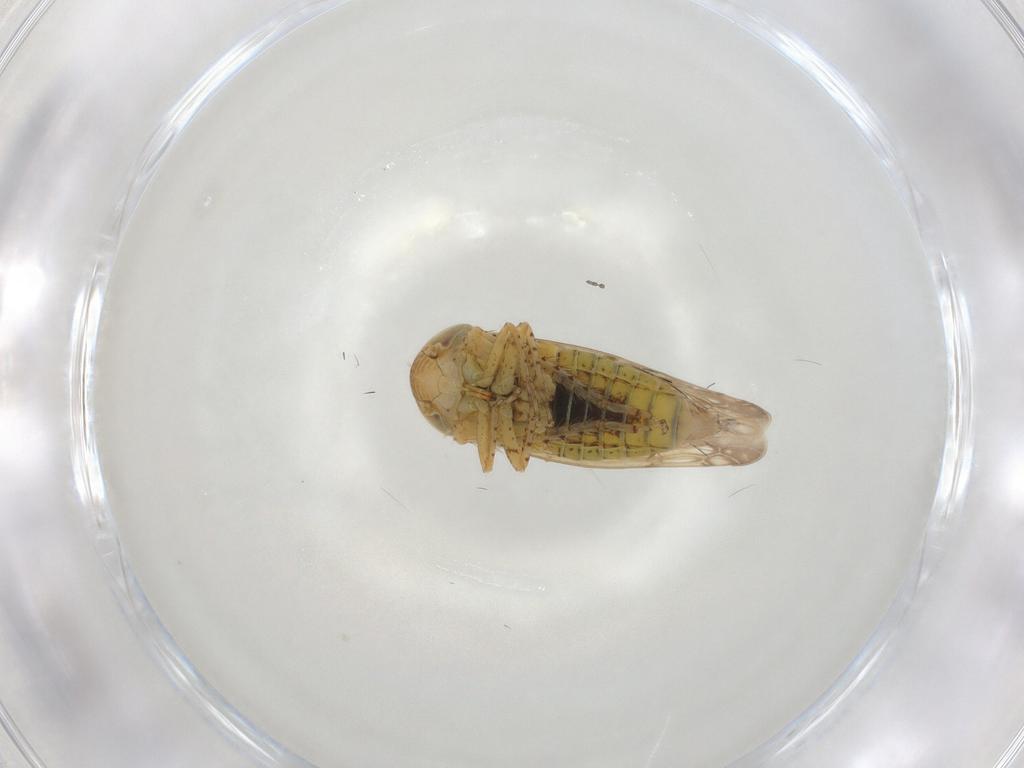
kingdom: Animalia
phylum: Arthropoda
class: Insecta
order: Hemiptera
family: Cicadellidae
